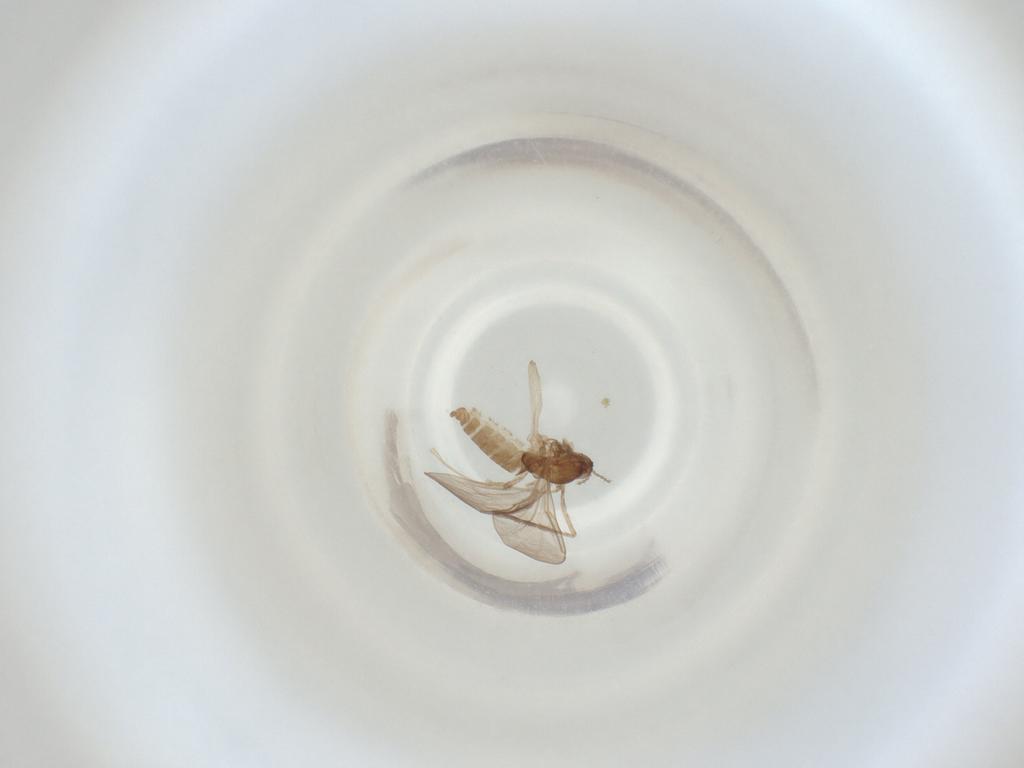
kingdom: Animalia
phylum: Arthropoda
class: Insecta
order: Diptera
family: Cecidomyiidae
